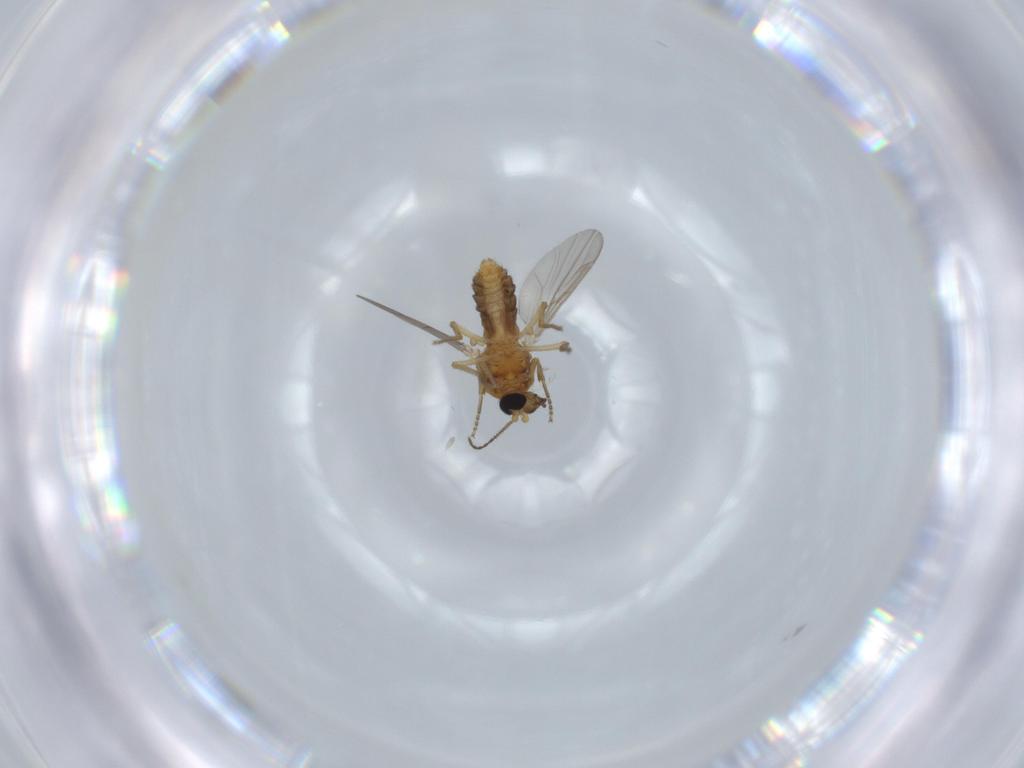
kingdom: Animalia
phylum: Arthropoda
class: Insecta
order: Diptera
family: Ceratopogonidae
